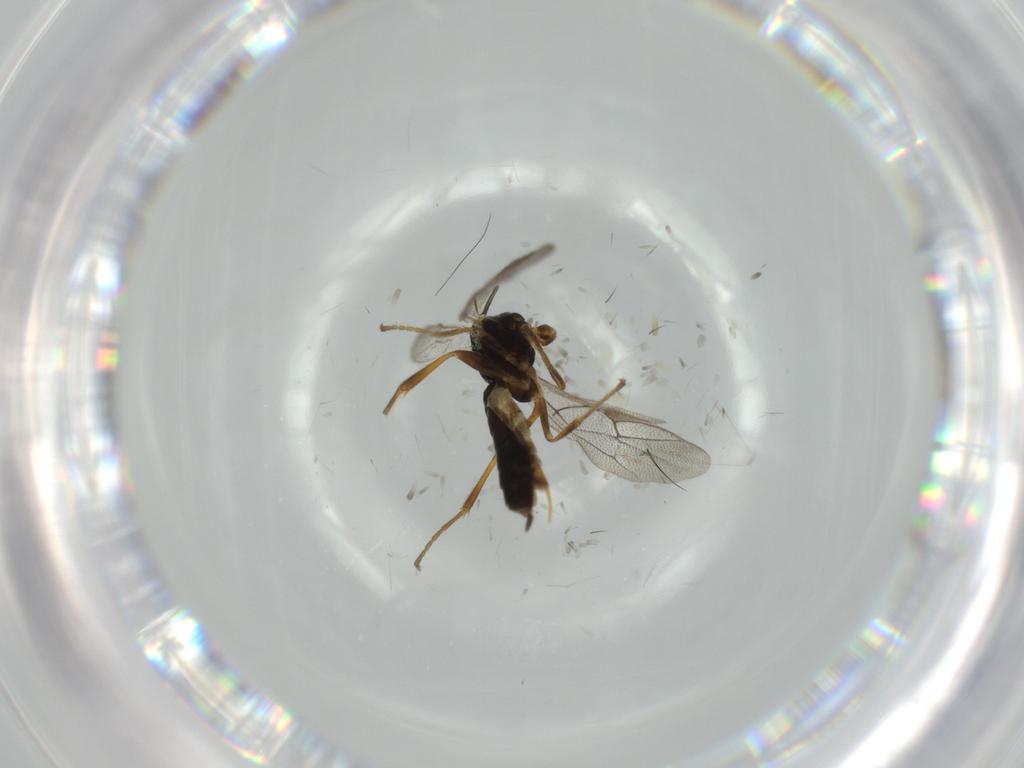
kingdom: Animalia
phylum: Arthropoda
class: Insecta
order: Hymenoptera
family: Ichneumonidae
